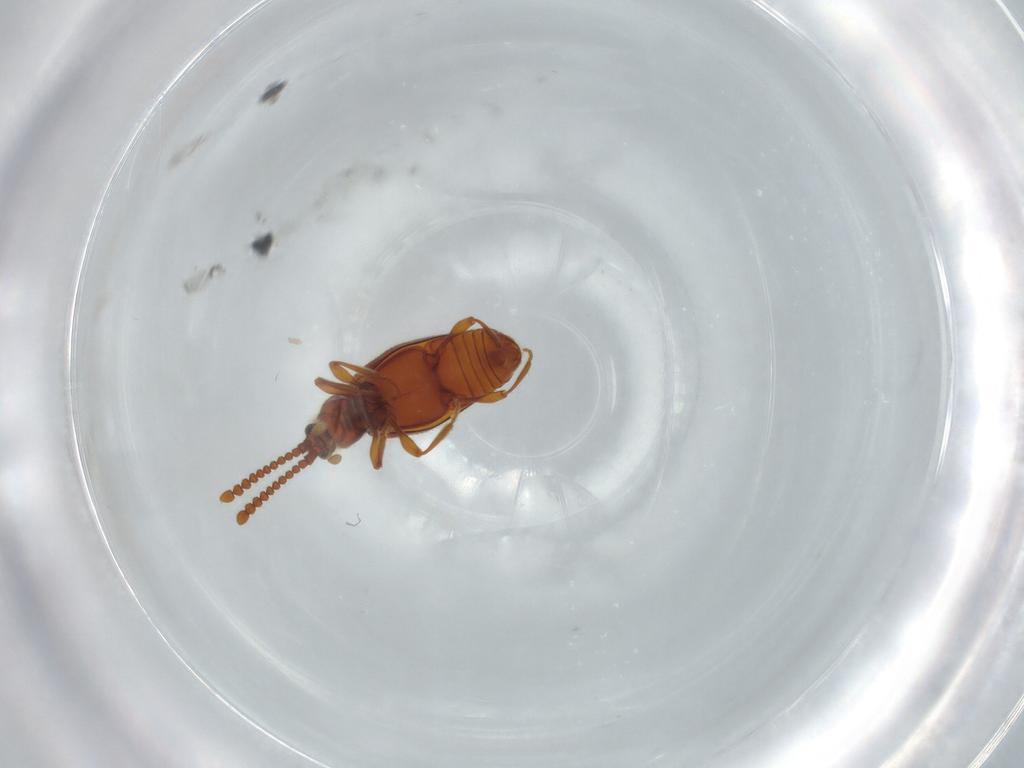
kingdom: Animalia
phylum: Arthropoda
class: Insecta
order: Coleoptera
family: Staphylinidae
